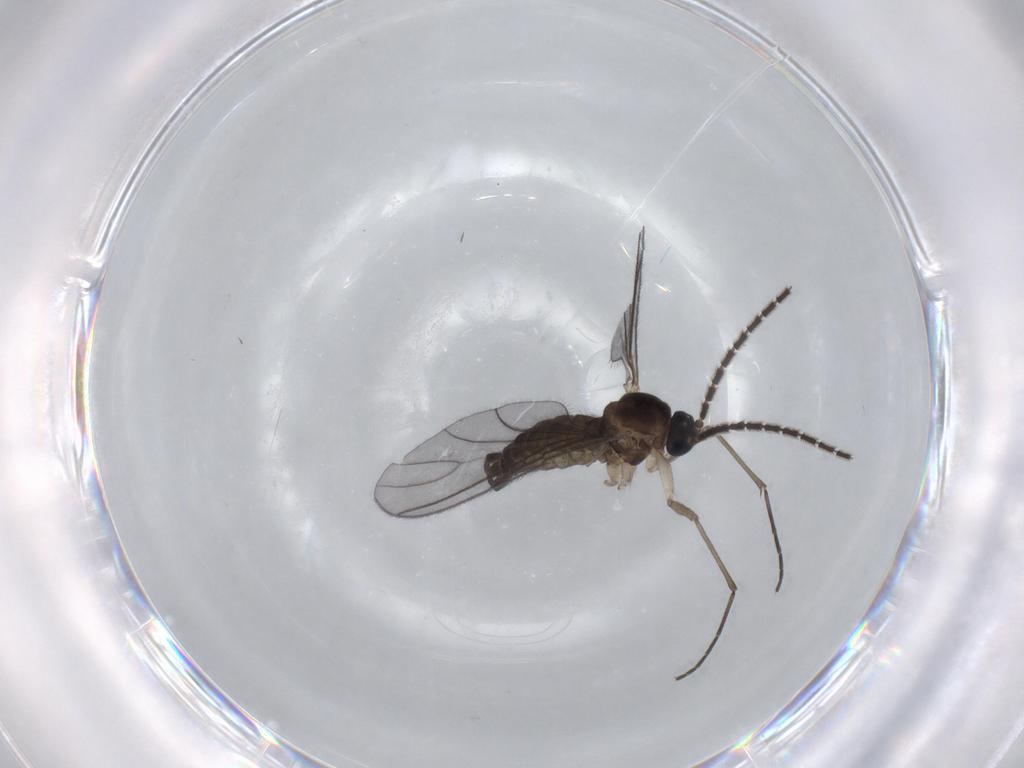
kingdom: Animalia
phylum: Arthropoda
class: Insecta
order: Diptera
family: Sciaridae
